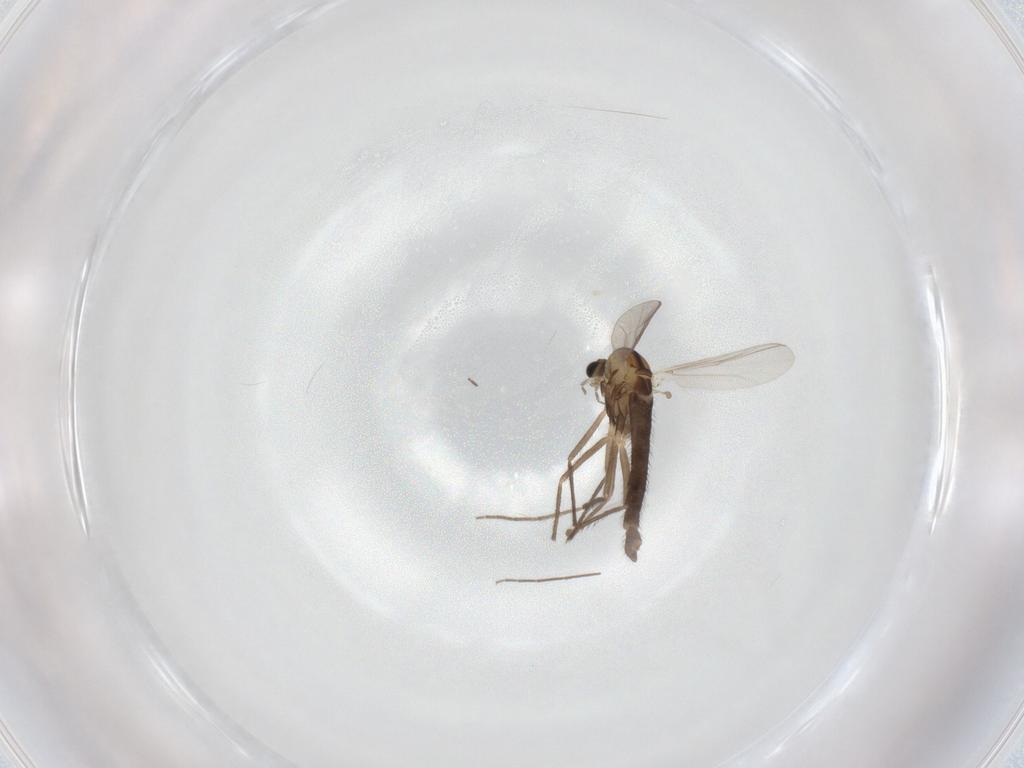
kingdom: Animalia
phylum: Arthropoda
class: Insecta
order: Diptera
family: Chironomidae
